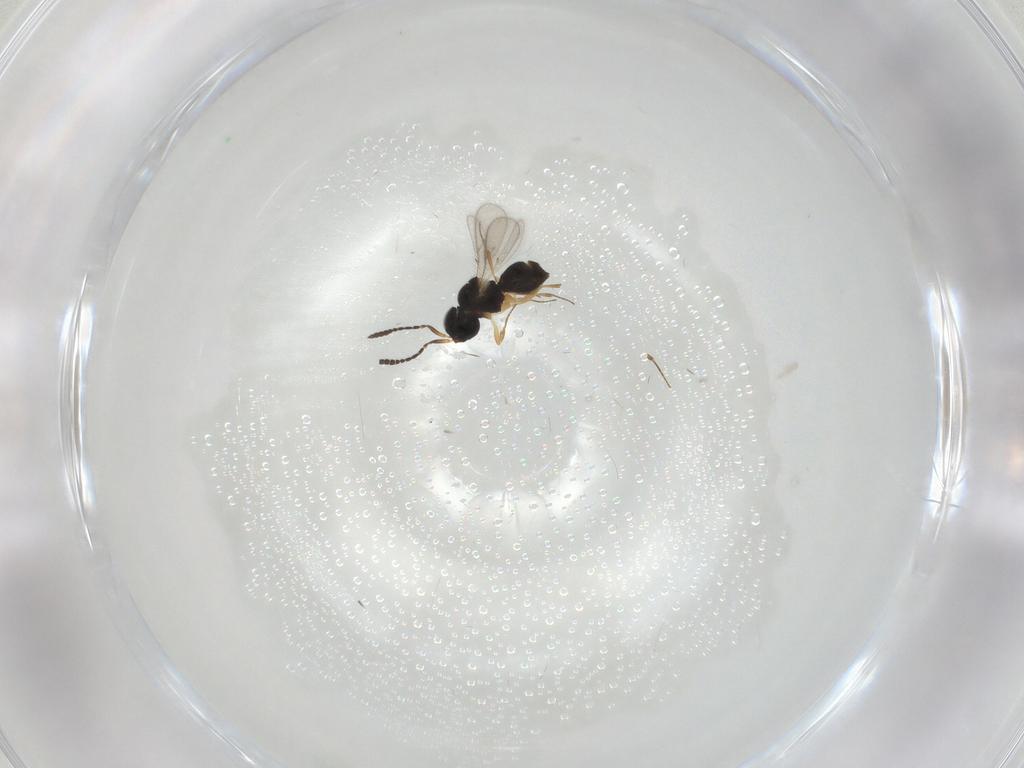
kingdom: Animalia
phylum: Arthropoda
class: Insecta
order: Hymenoptera
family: Scelionidae
